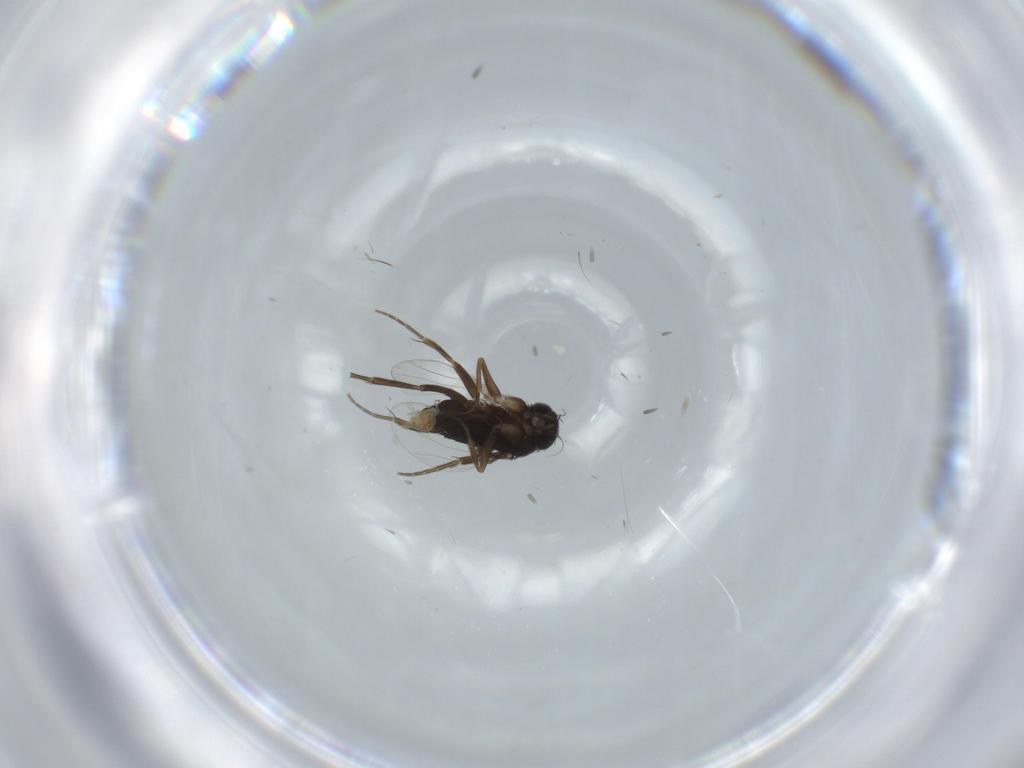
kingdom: Animalia
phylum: Arthropoda
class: Insecta
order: Diptera
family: Phoridae
